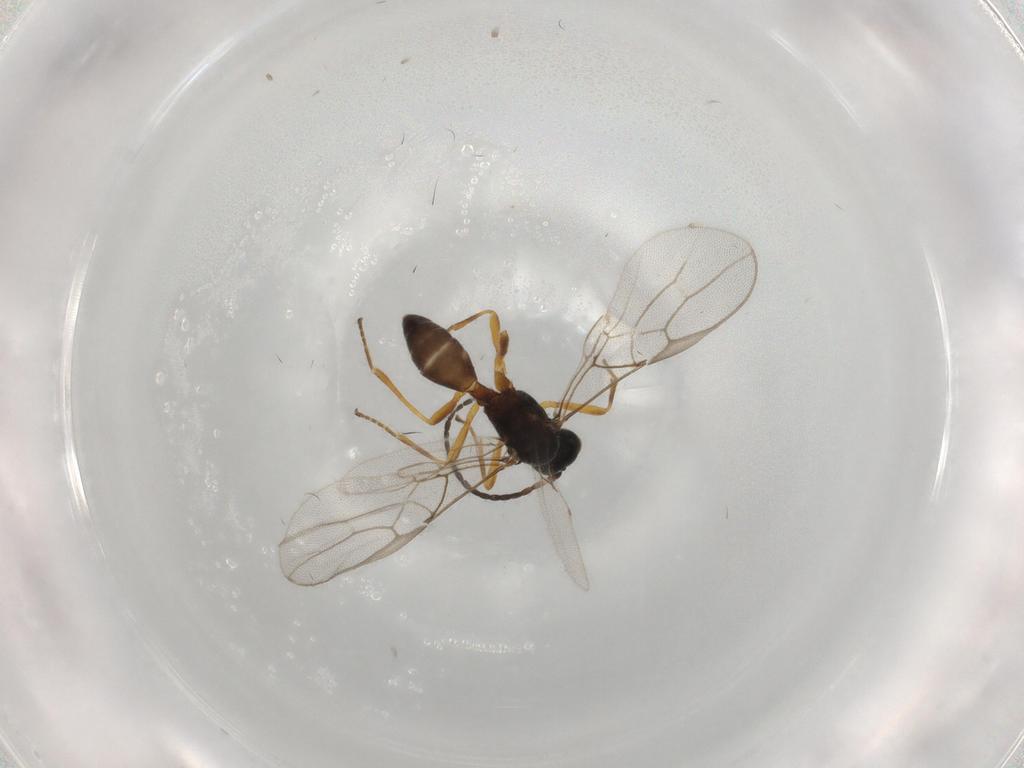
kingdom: Animalia
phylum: Arthropoda
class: Insecta
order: Hymenoptera
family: Braconidae
